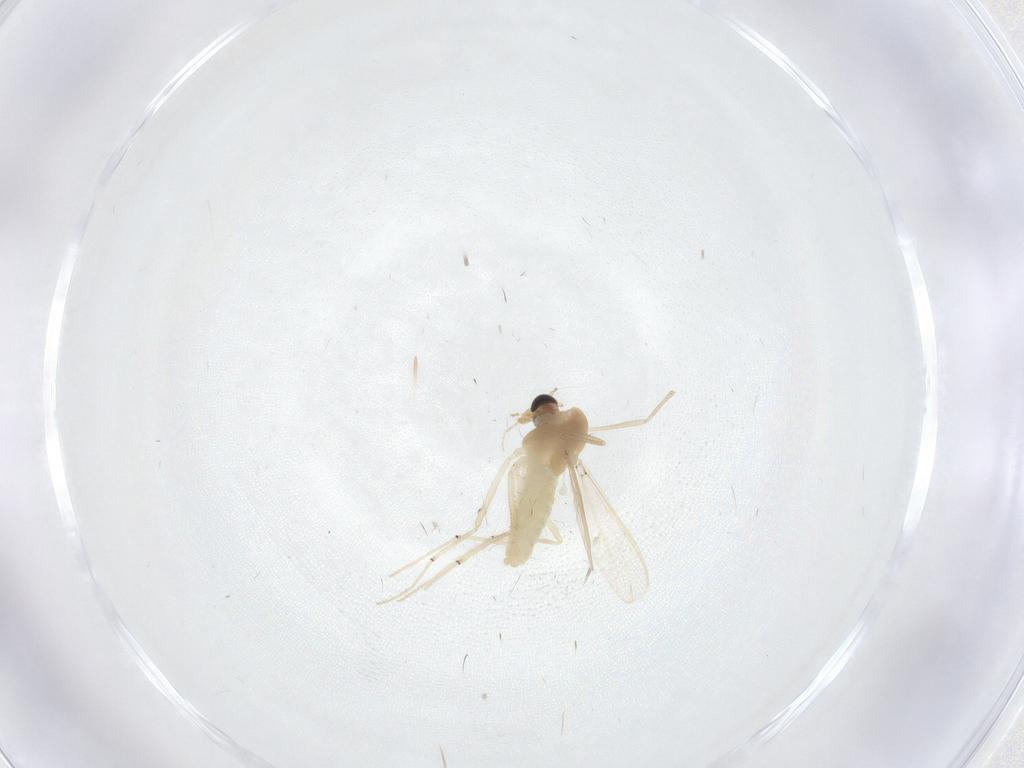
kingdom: Animalia
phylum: Arthropoda
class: Insecta
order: Diptera
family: Chironomidae
